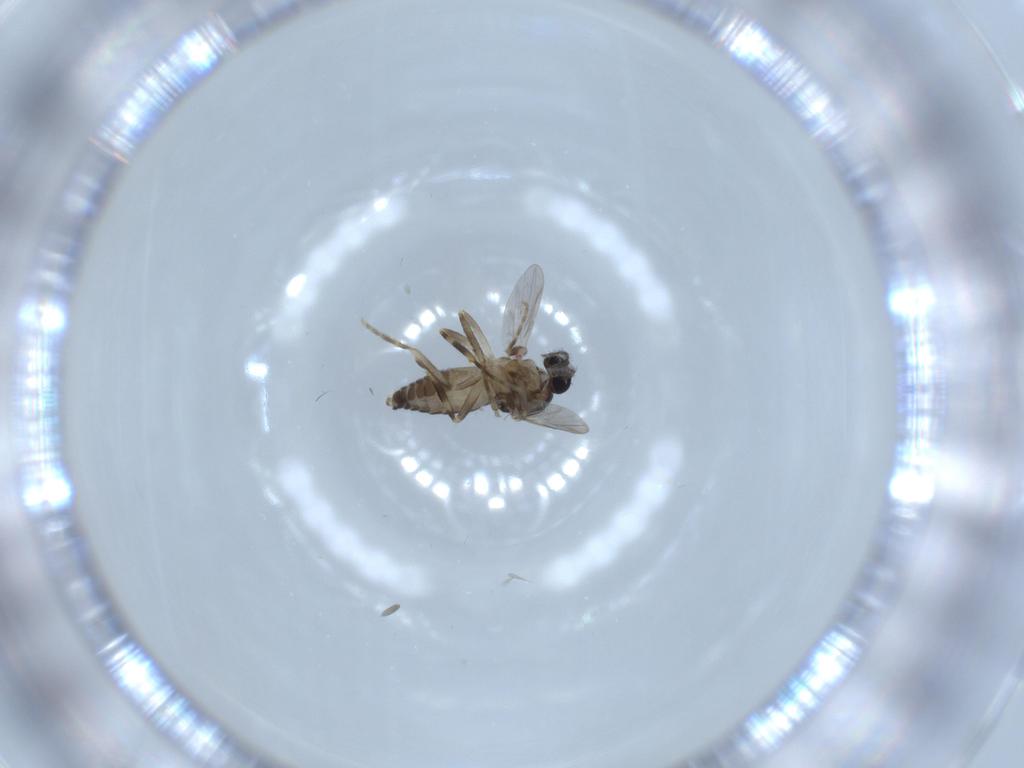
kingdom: Animalia
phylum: Arthropoda
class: Insecta
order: Diptera
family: Ceratopogonidae
